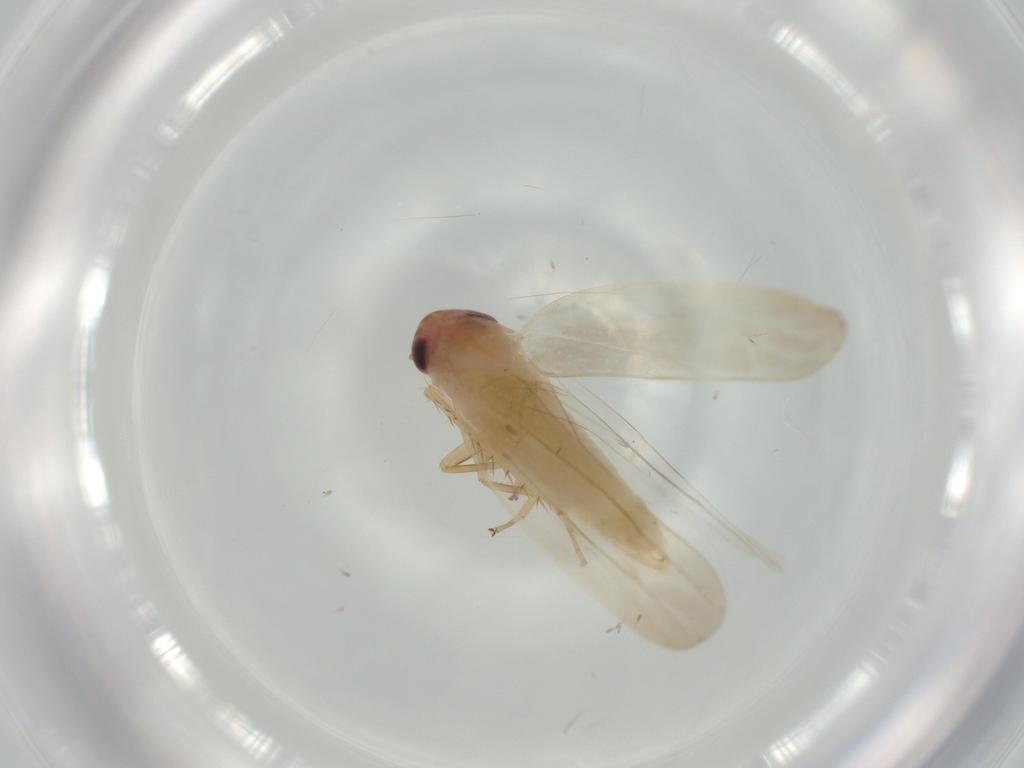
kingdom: Animalia
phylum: Arthropoda
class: Insecta
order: Hemiptera
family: Cicadellidae
